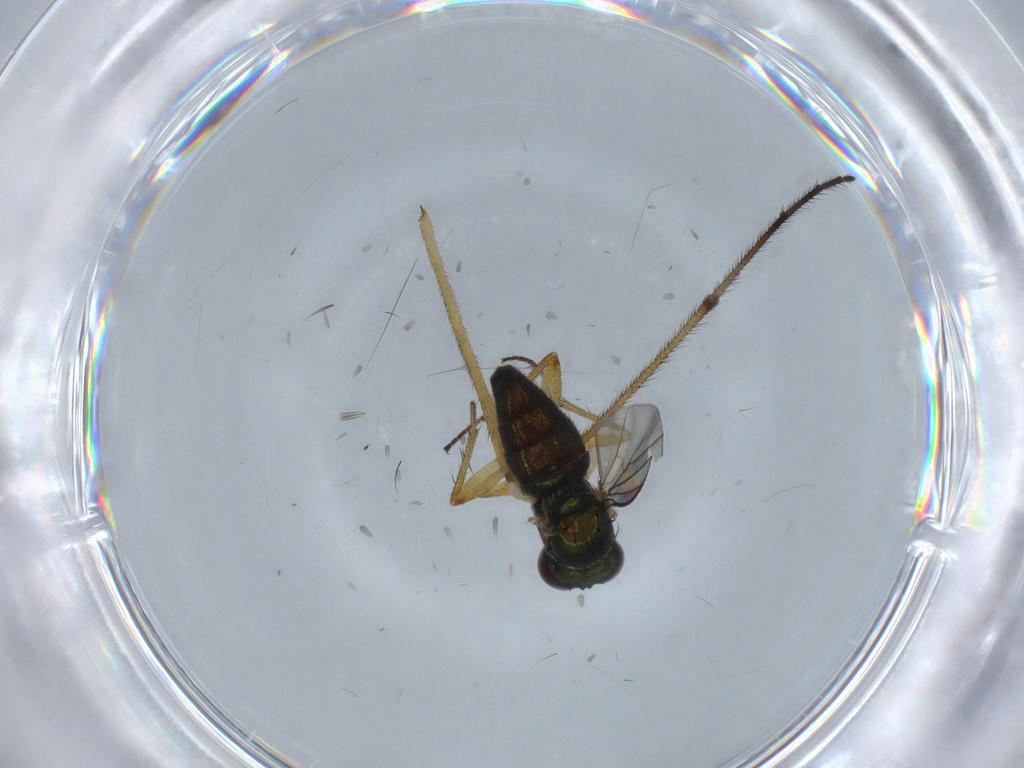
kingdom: Animalia
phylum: Arthropoda
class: Insecta
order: Diptera
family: Limoniidae
